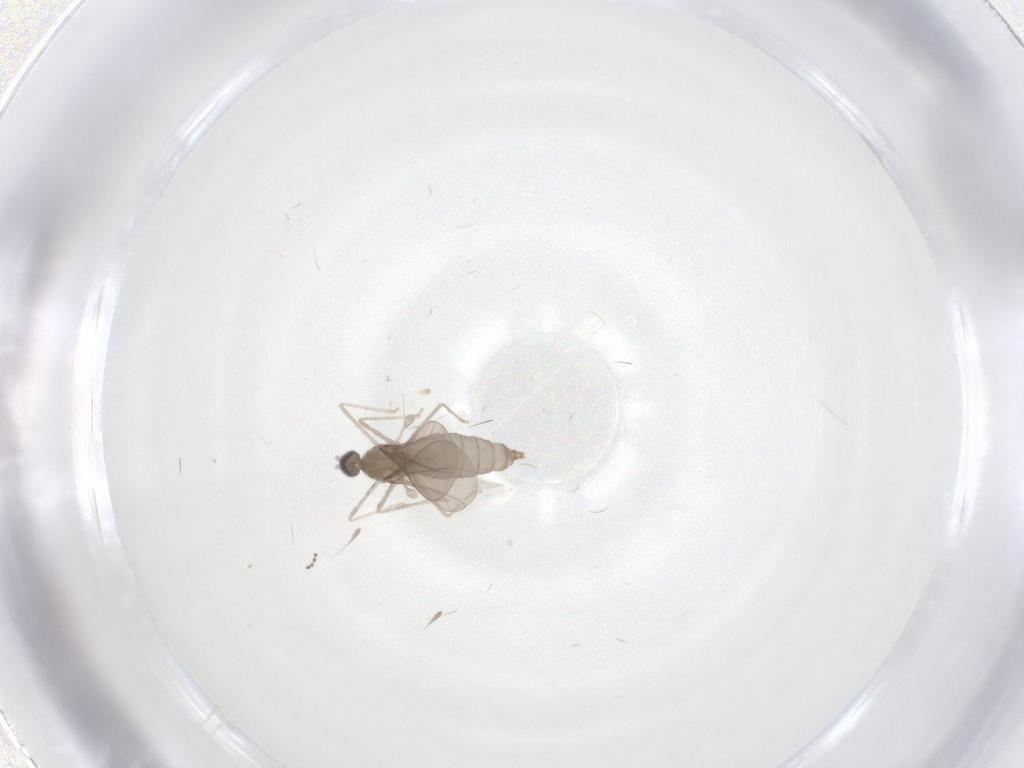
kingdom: Animalia
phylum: Arthropoda
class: Insecta
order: Diptera
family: Cecidomyiidae
